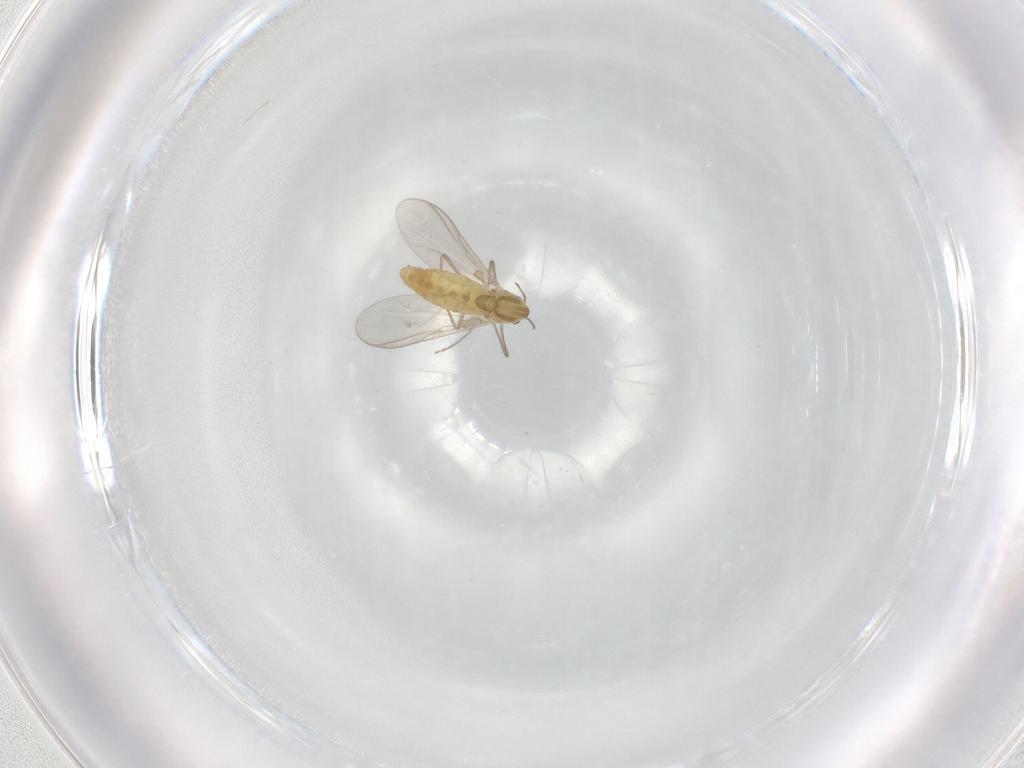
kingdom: Animalia
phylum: Arthropoda
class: Insecta
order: Diptera
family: Chironomidae
